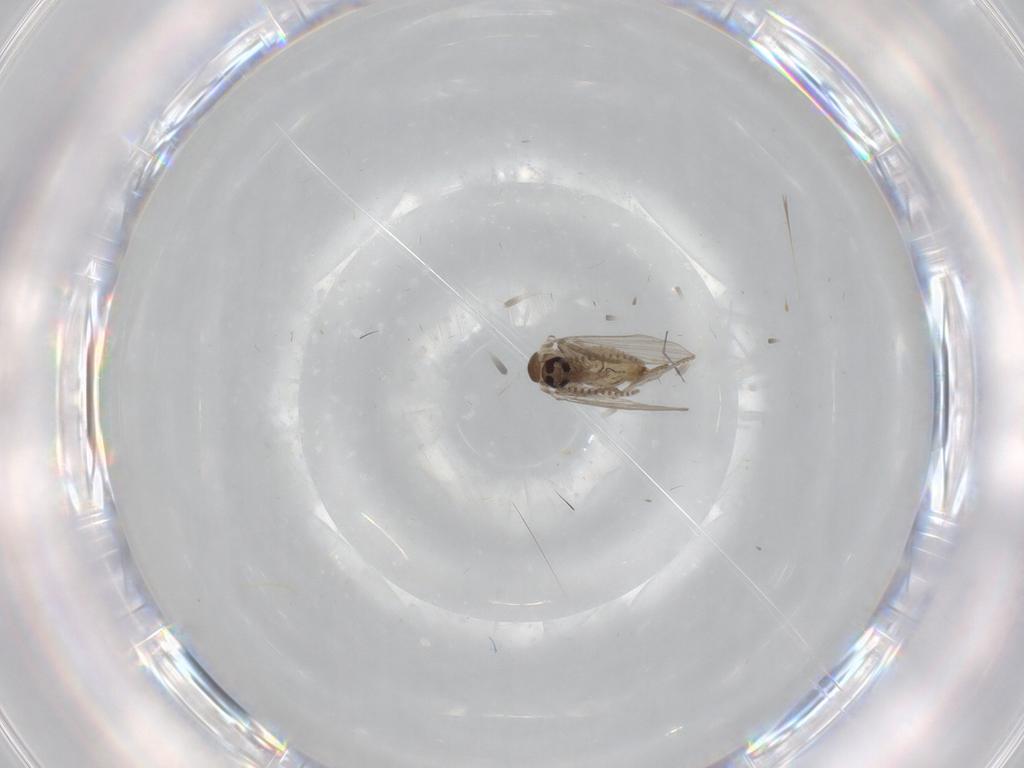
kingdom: Animalia
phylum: Arthropoda
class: Insecta
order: Diptera
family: Psychodidae
